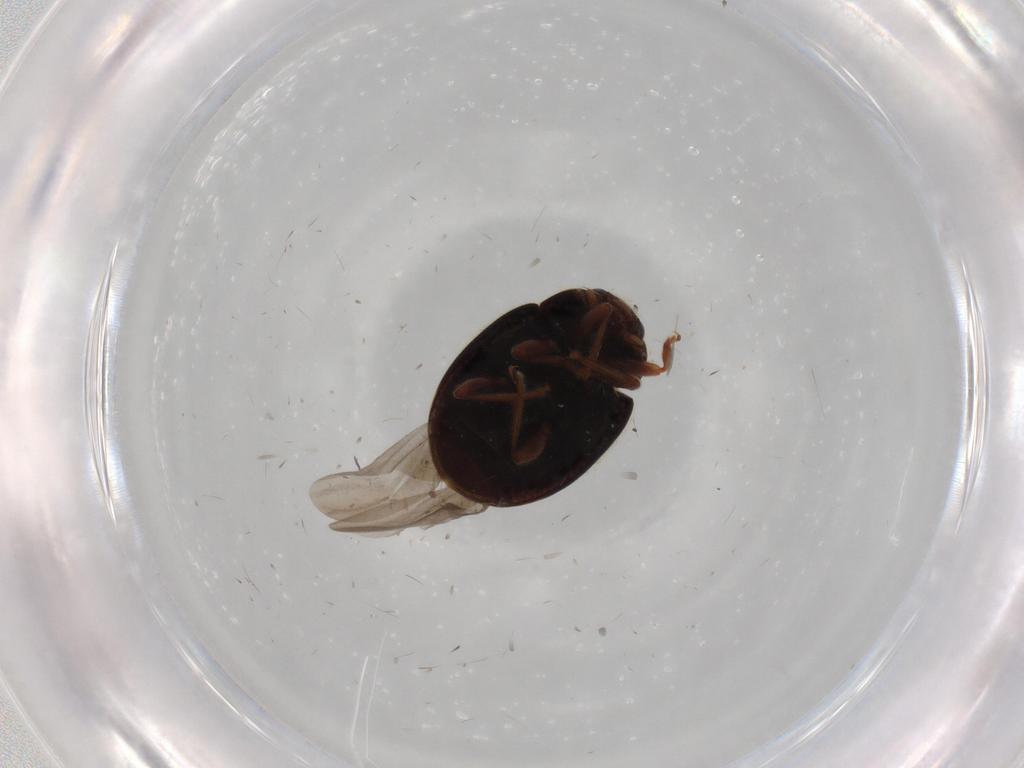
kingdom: Animalia
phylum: Arthropoda
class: Insecta
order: Coleoptera
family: Coccinellidae
